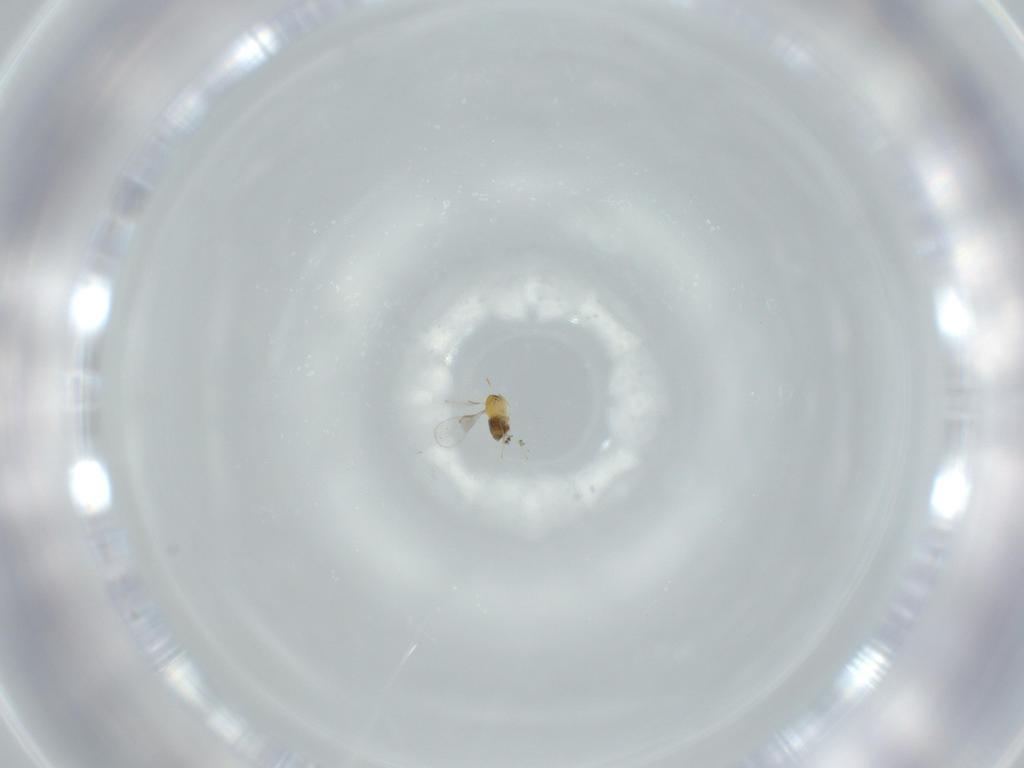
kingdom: Animalia
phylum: Arthropoda
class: Insecta
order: Hymenoptera
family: Trichogrammatidae
